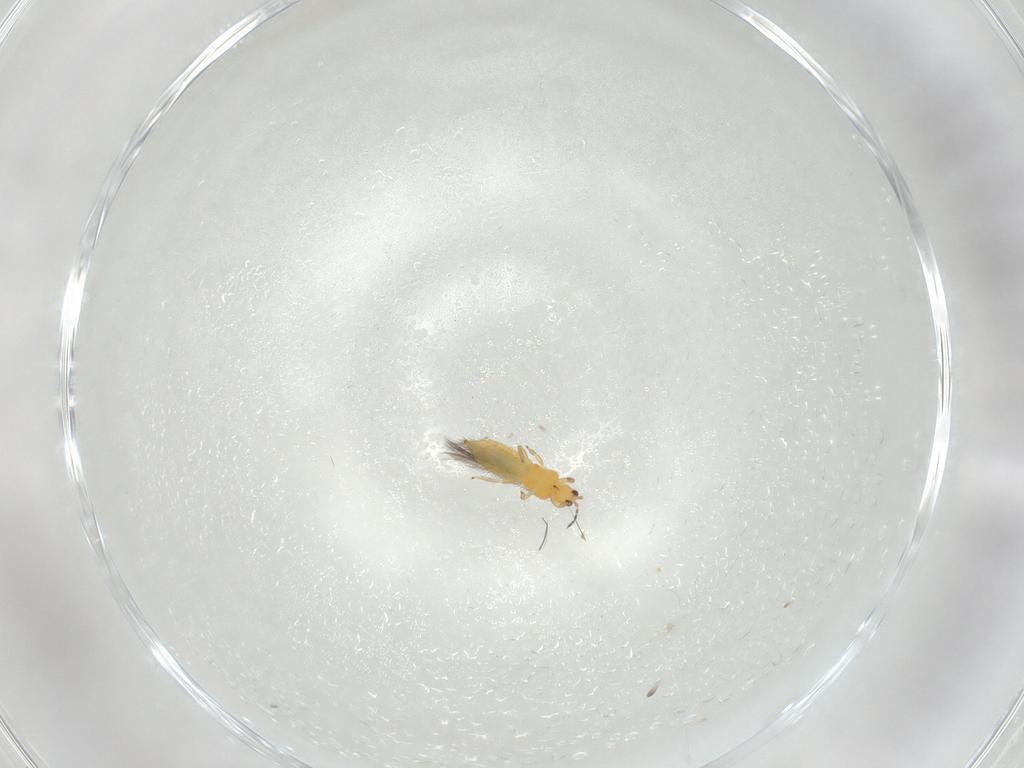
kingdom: Animalia
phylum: Arthropoda
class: Insecta
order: Thysanoptera
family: Thripidae
